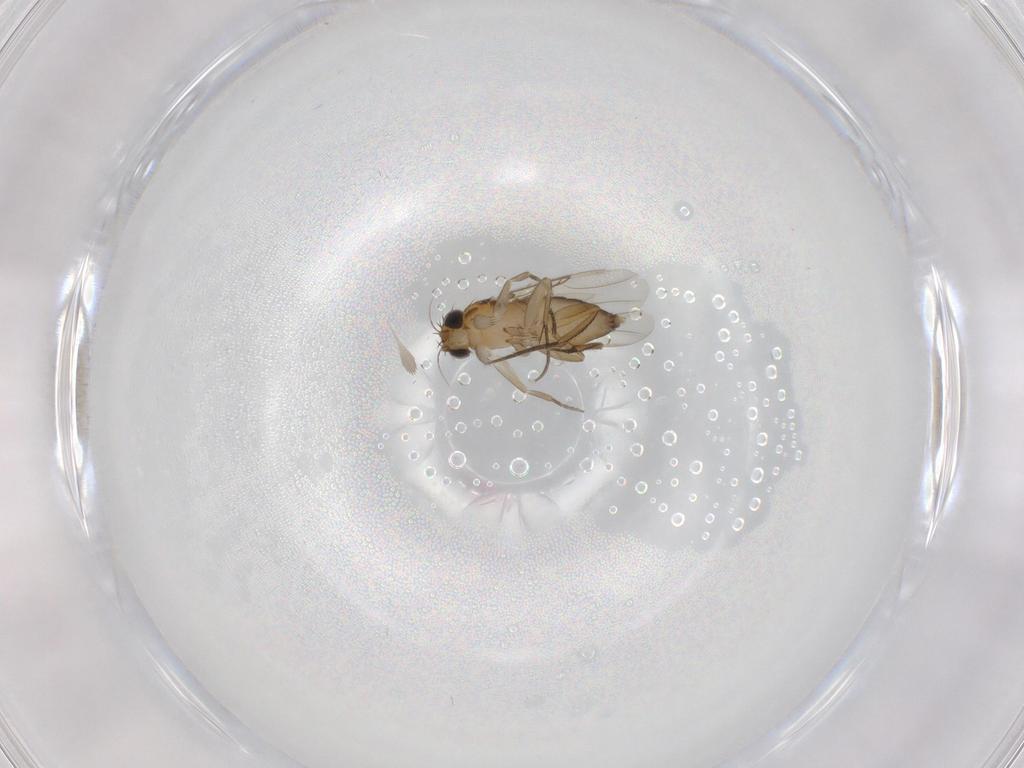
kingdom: Animalia
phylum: Arthropoda
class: Insecta
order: Diptera
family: Phoridae
